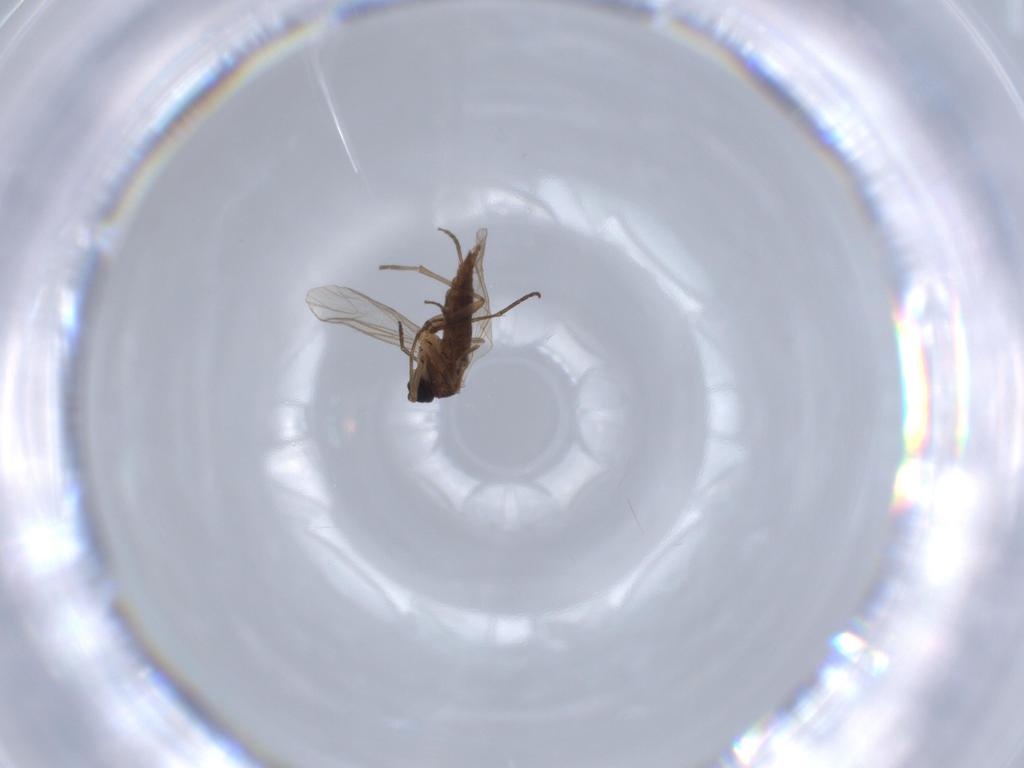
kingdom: Animalia
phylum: Arthropoda
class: Insecta
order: Diptera
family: Sciaridae
